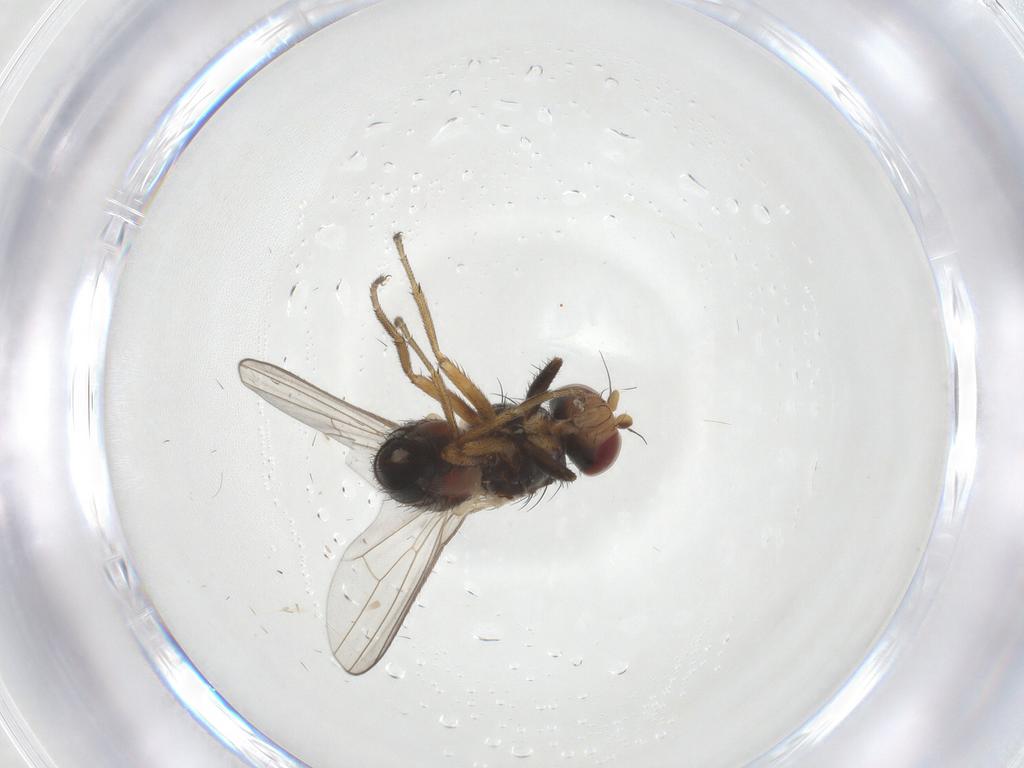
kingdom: Animalia
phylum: Arthropoda
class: Insecta
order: Diptera
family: Heleomyzidae
